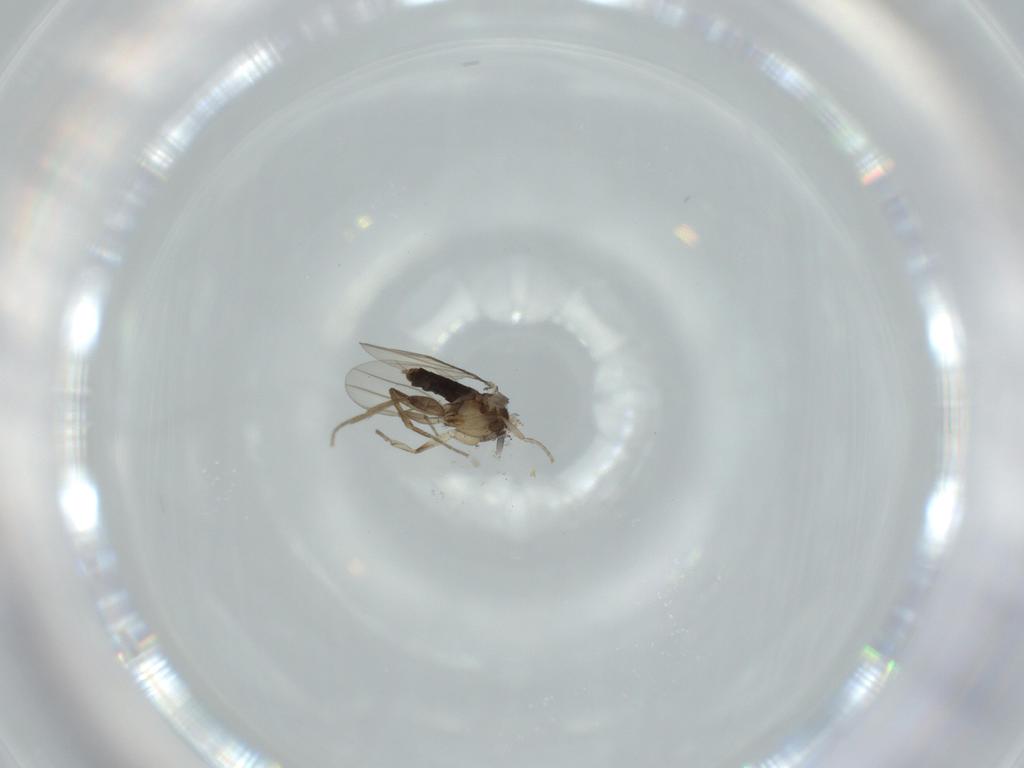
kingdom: Animalia
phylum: Arthropoda
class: Insecta
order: Diptera
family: Phoridae
